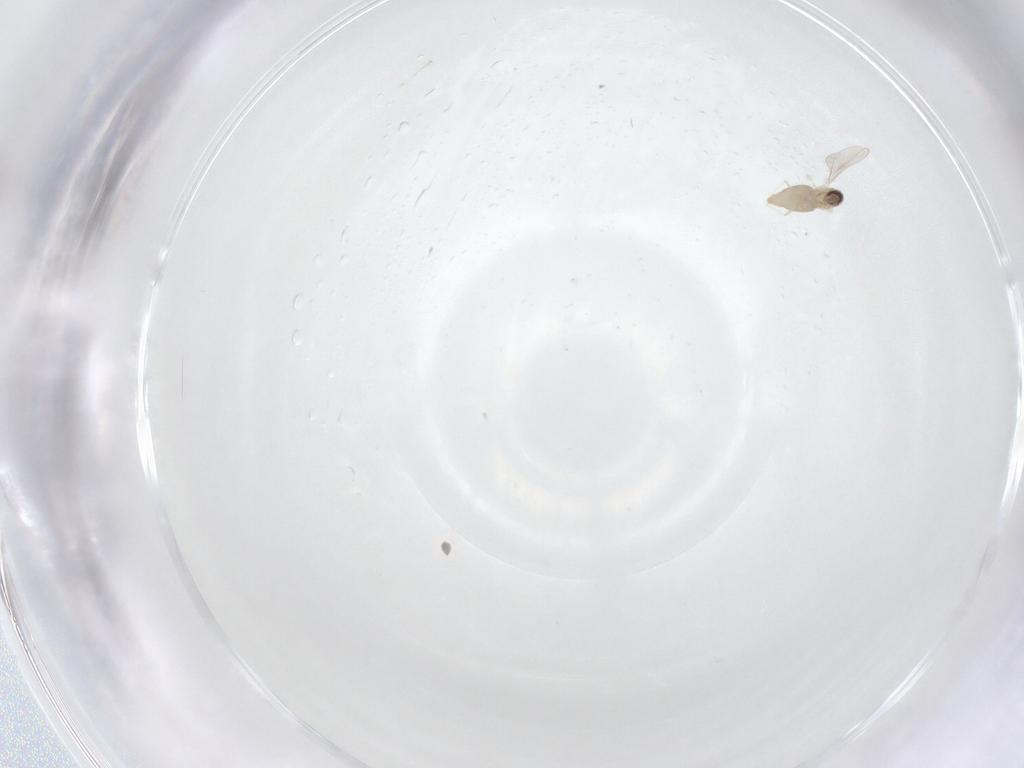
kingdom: Animalia
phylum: Arthropoda
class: Insecta
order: Diptera
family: Cecidomyiidae
